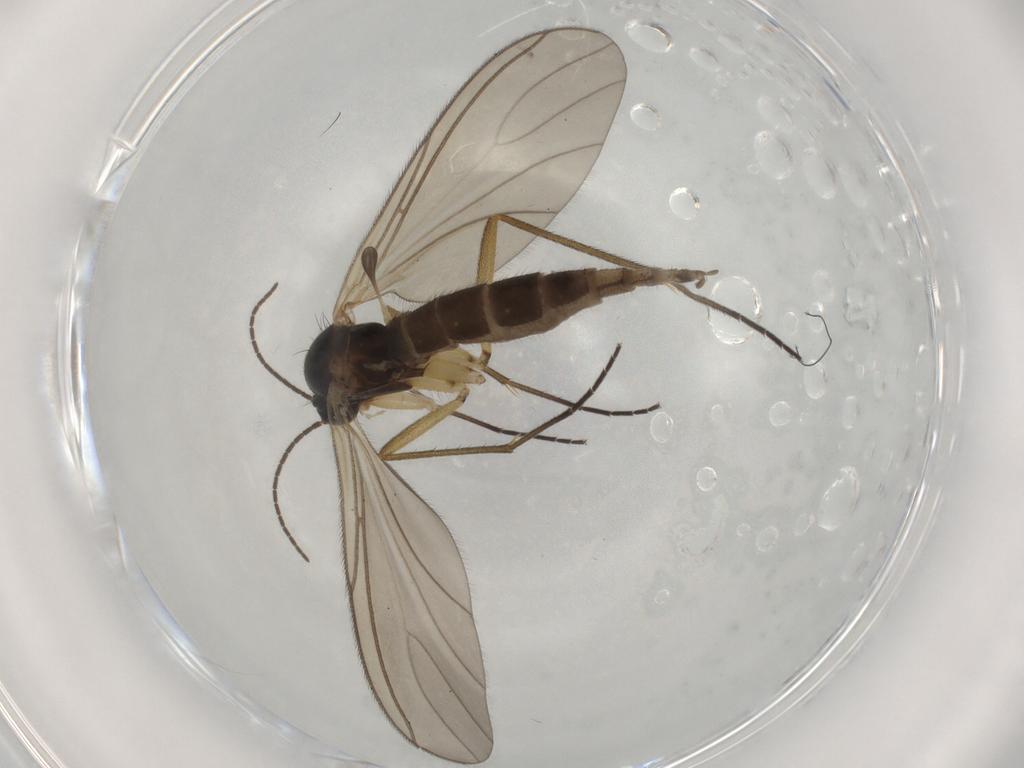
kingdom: Animalia
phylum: Arthropoda
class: Insecta
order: Diptera
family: Sciaridae
